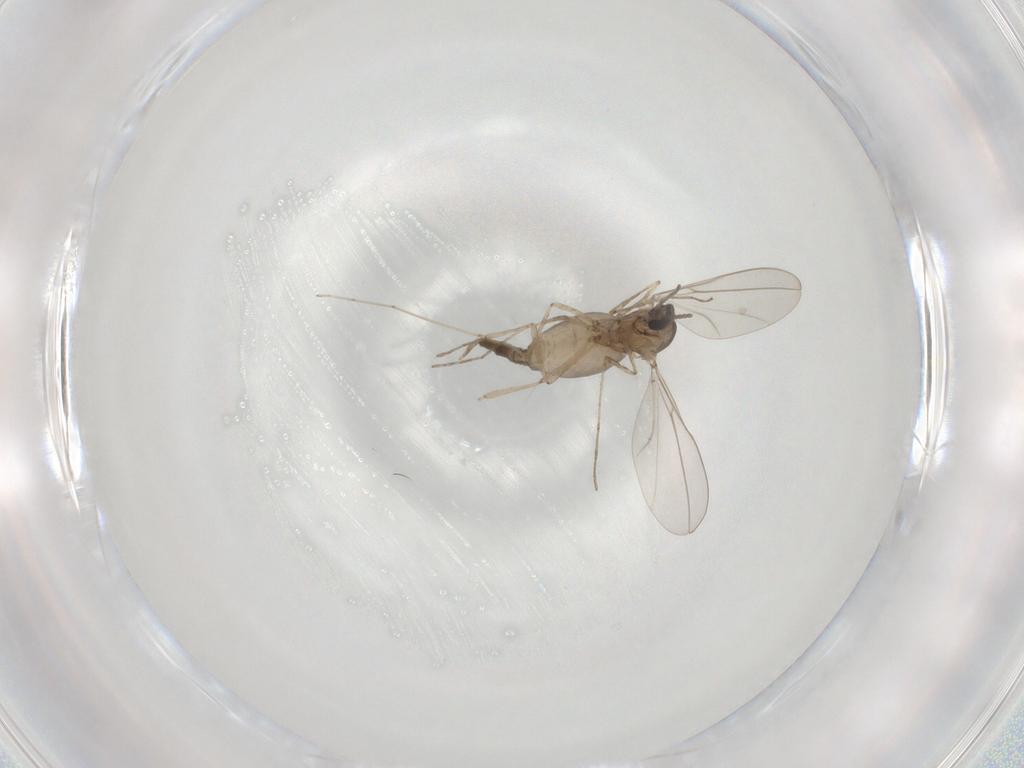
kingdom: Animalia
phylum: Arthropoda
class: Insecta
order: Diptera
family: Cecidomyiidae
